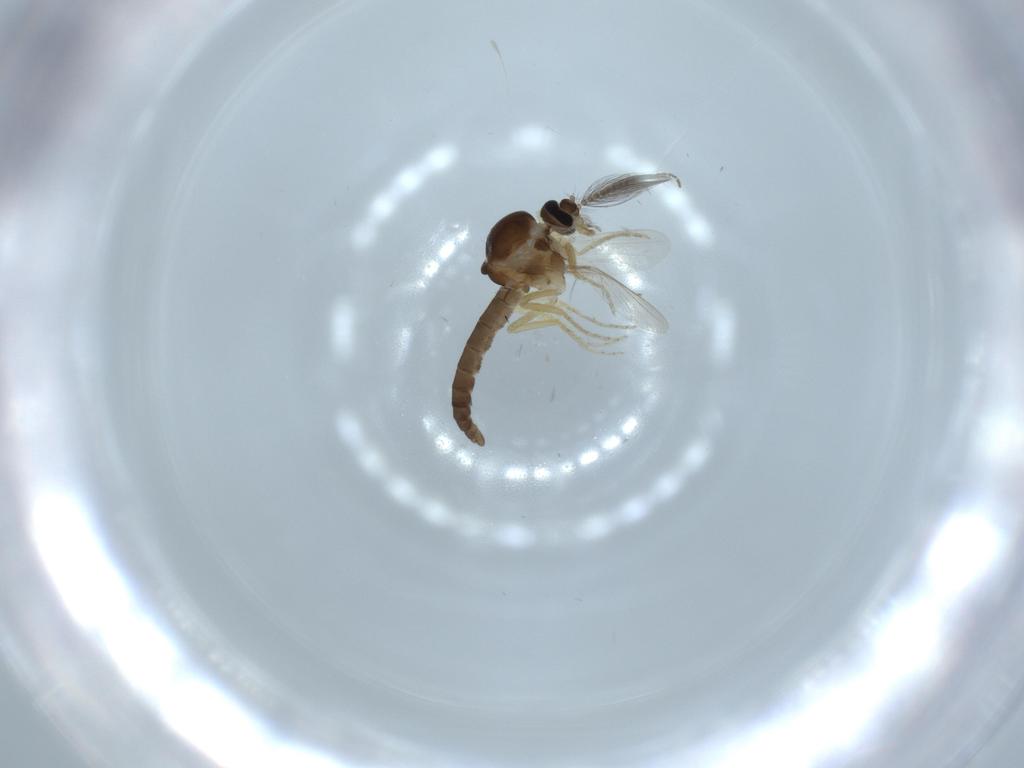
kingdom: Animalia
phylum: Arthropoda
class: Insecta
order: Diptera
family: Ceratopogonidae
